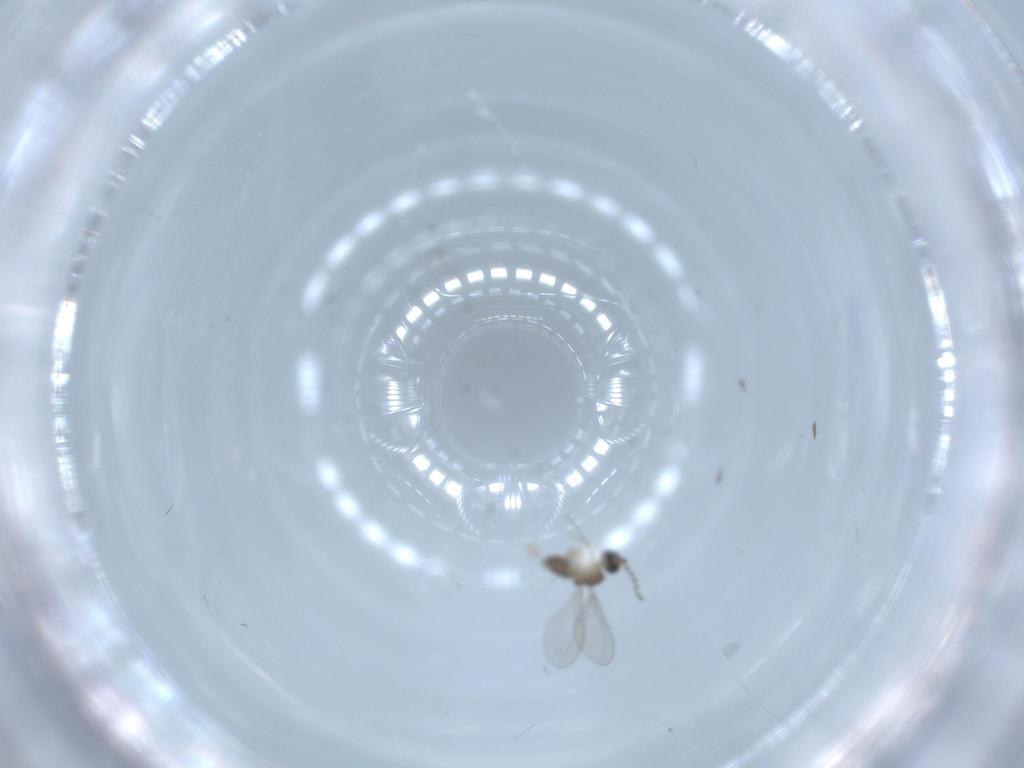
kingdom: Animalia
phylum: Arthropoda
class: Insecta
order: Diptera
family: Cecidomyiidae
